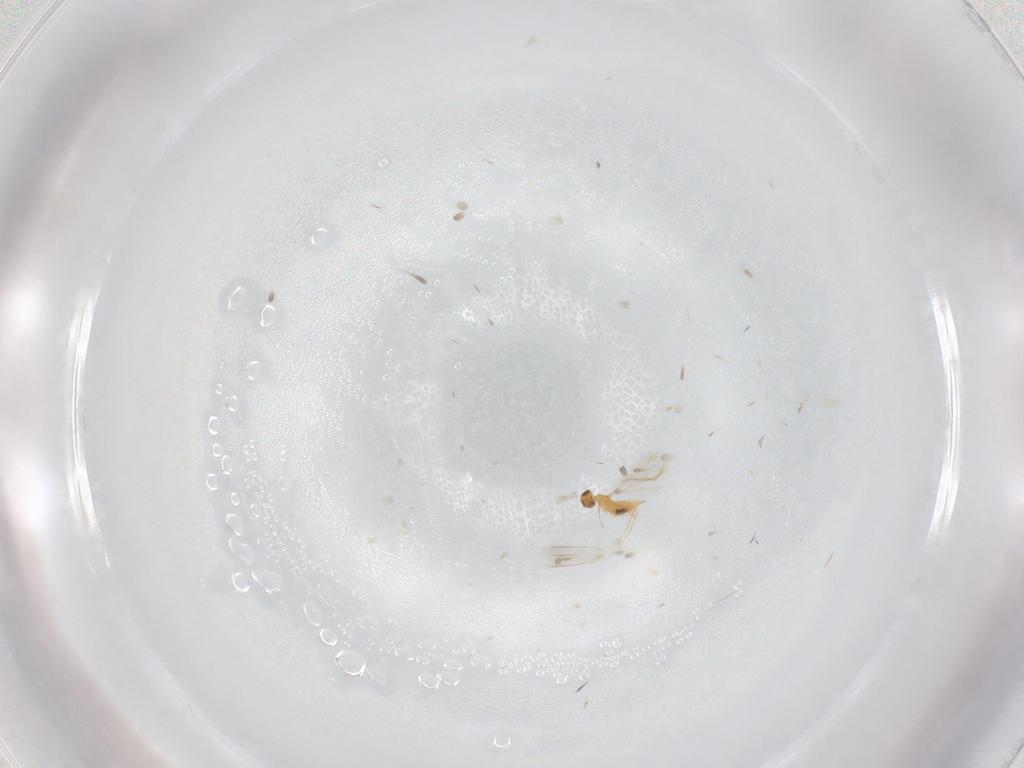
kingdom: Animalia
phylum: Arthropoda
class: Insecta
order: Hymenoptera
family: Mymaridae
